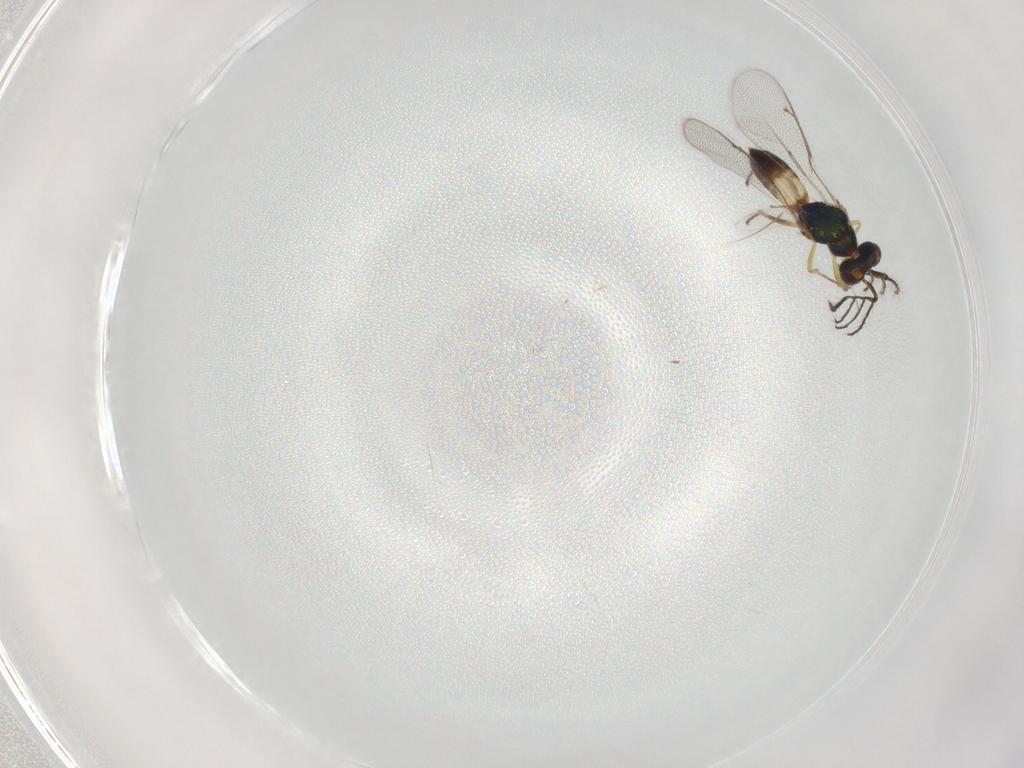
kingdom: Animalia
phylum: Arthropoda
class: Insecta
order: Hymenoptera
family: Eulophidae
